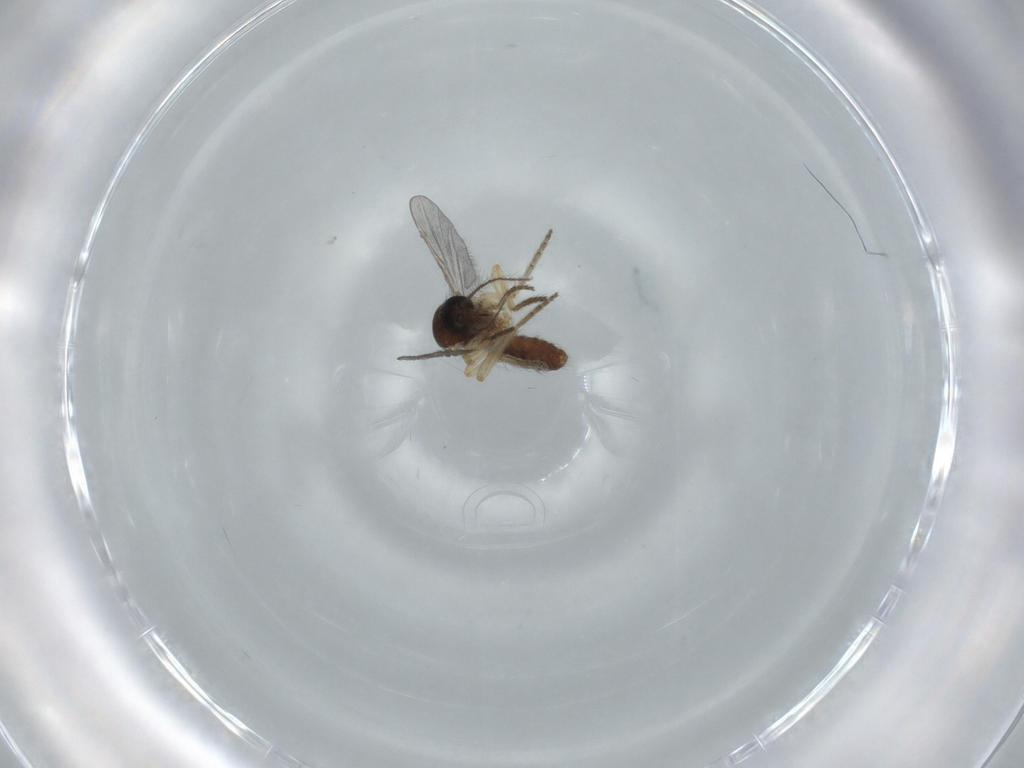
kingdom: Animalia
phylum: Arthropoda
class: Insecta
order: Diptera
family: Ceratopogonidae
